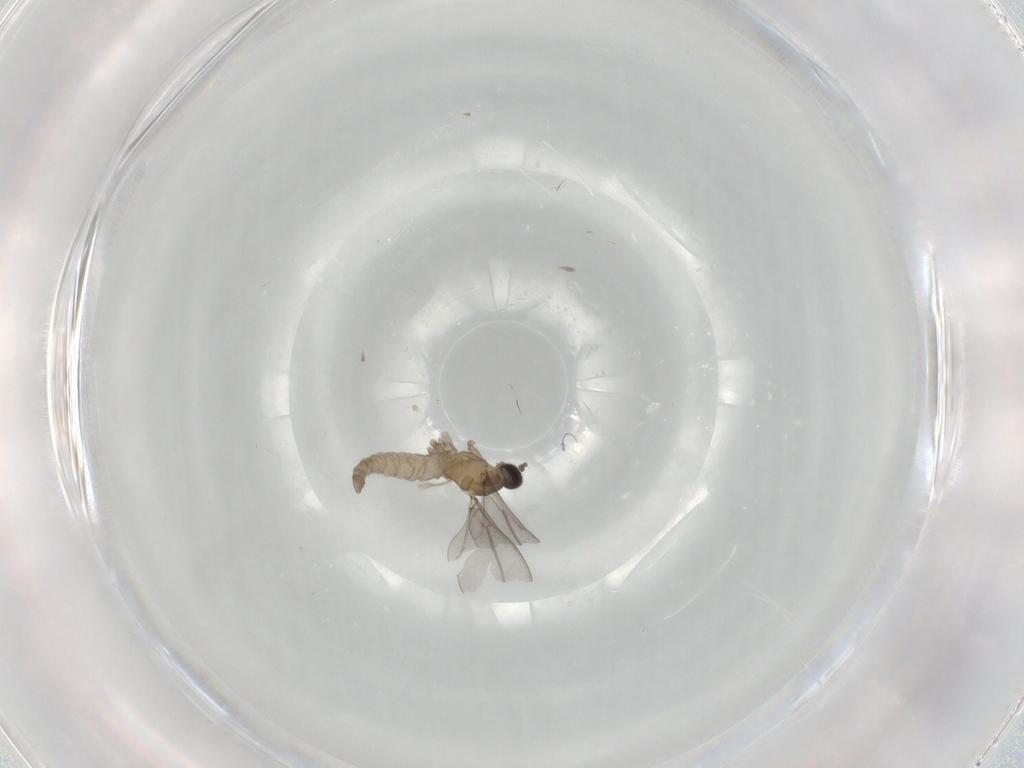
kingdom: Animalia
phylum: Arthropoda
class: Insecta
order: Diptera
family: Cecidomyiidae
